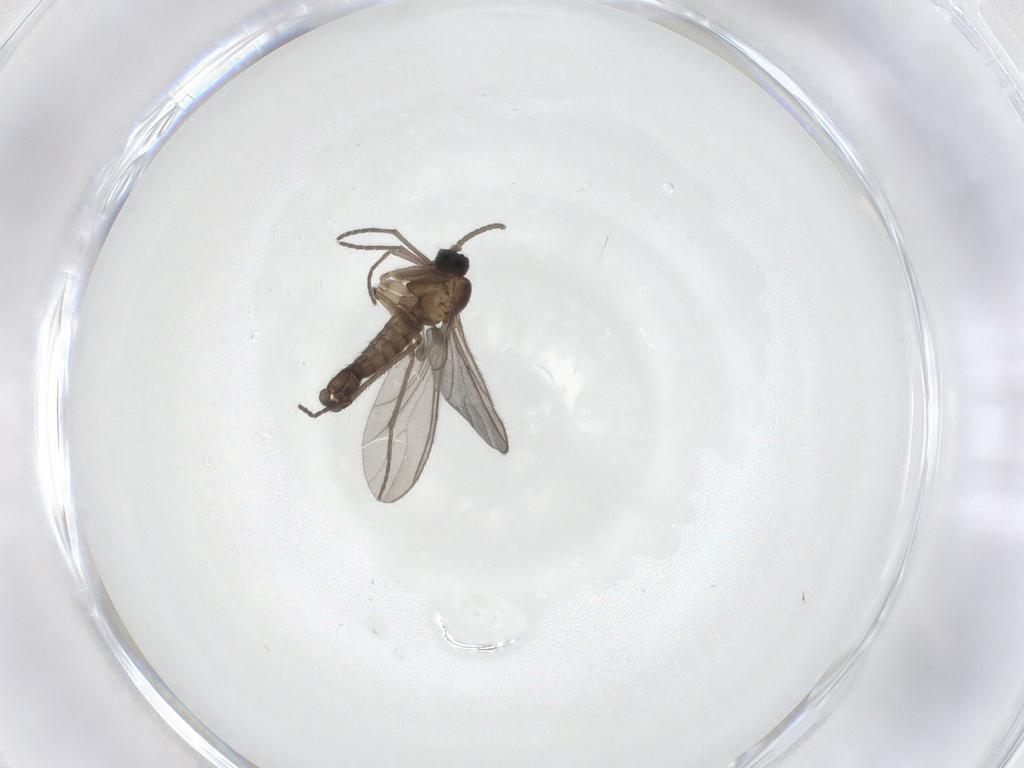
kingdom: Animalia
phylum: Arthropoda
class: Insecta
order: Diptera
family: Sciaridae
